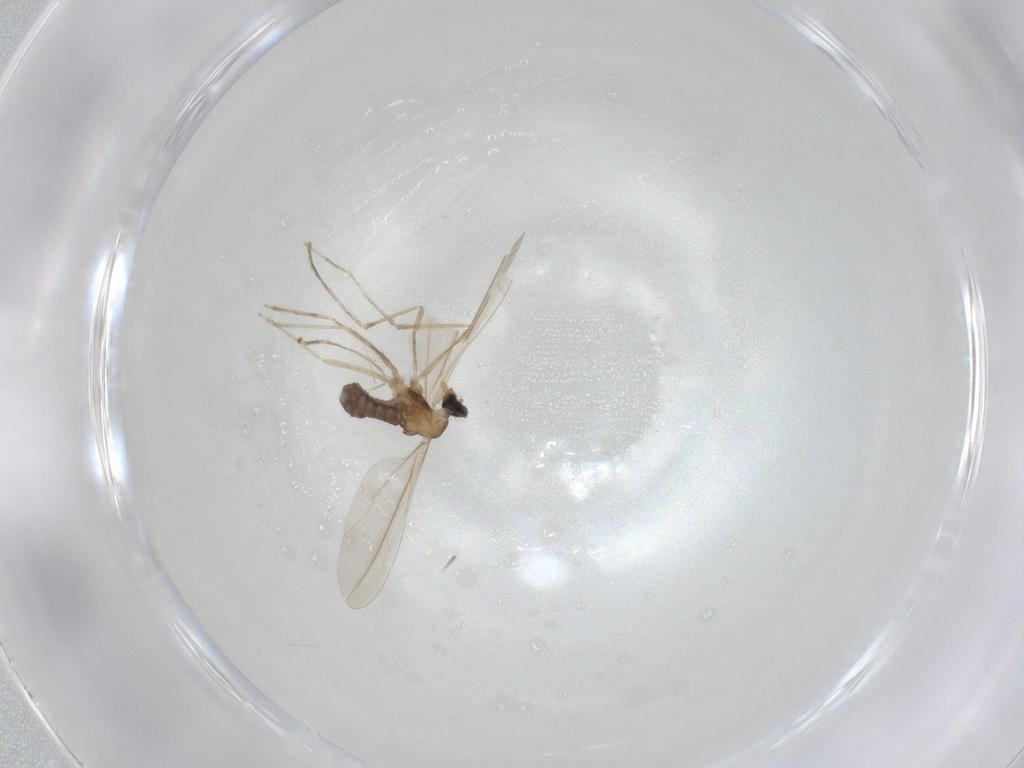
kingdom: Animalia
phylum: Arthropoda
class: Insecta
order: Diptera
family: Cecidomyiidae
